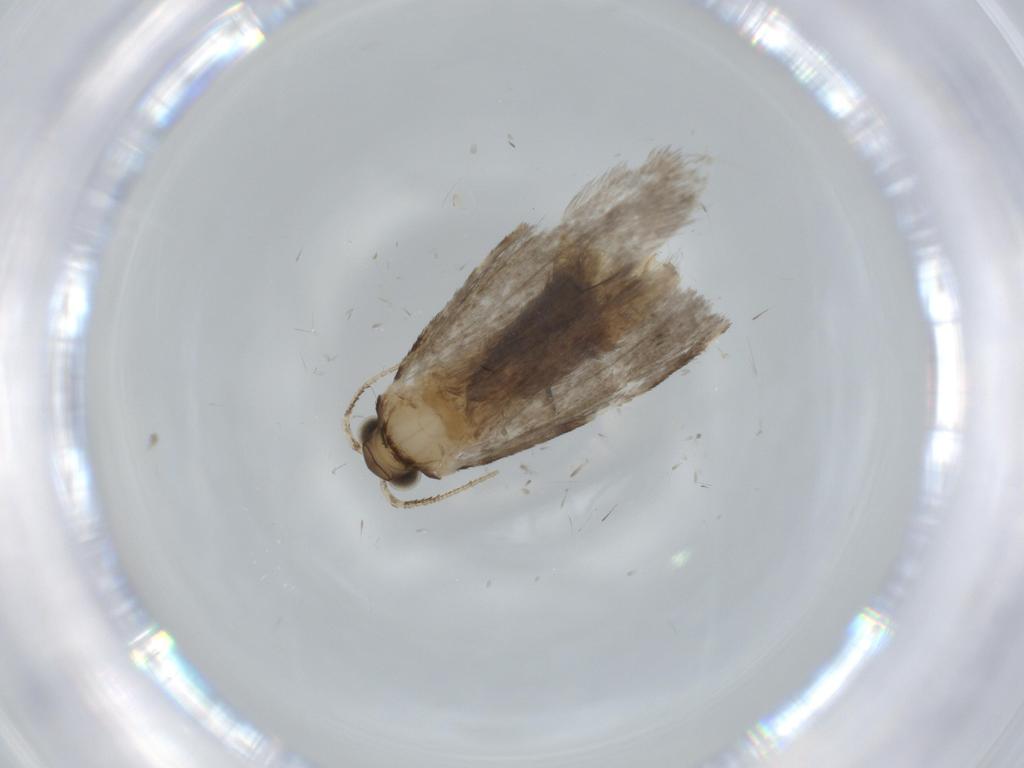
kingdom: Animalia
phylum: Arthropoda
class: Insecta
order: Lepidoptera
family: Tineidae
